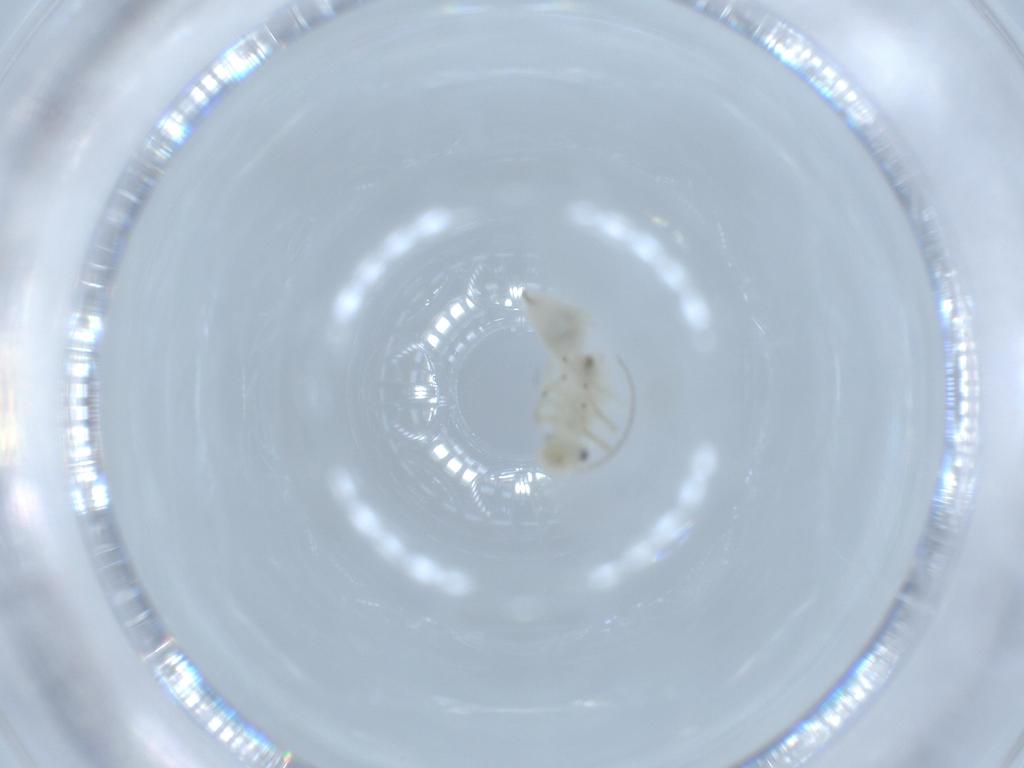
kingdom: Animalia
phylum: Arthropoda
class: Insecta
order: Psocodea
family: Caeciliusidae
